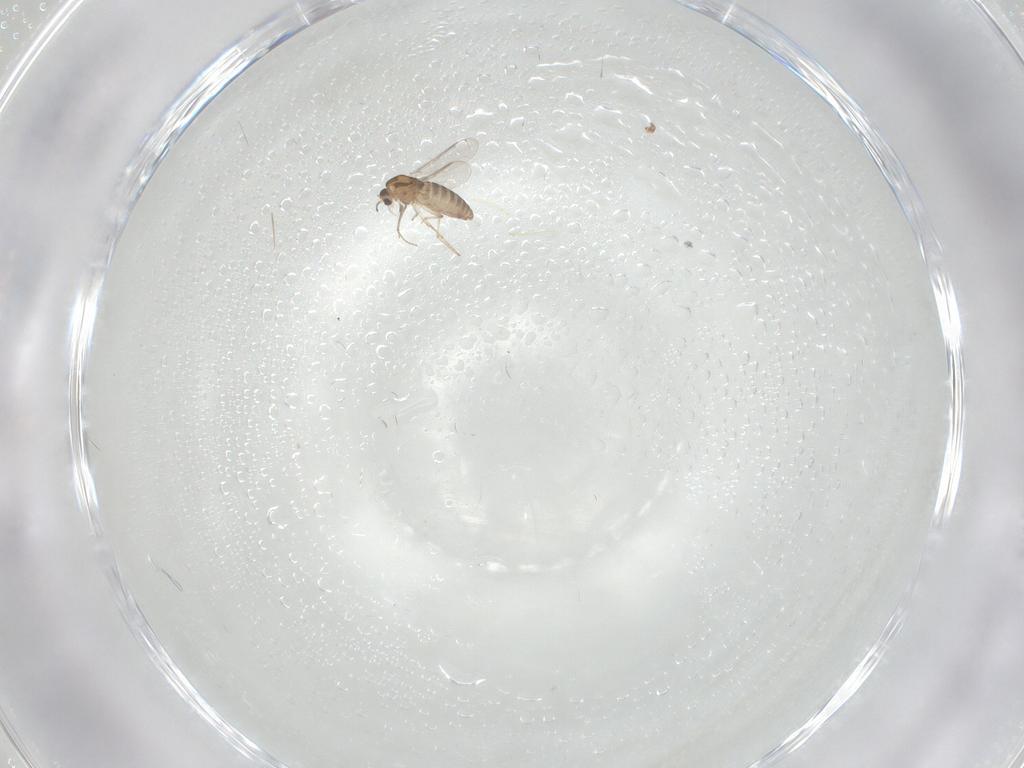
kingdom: Animalia
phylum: Arthropoda
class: Insecta
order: Diptera
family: Chironomidae
